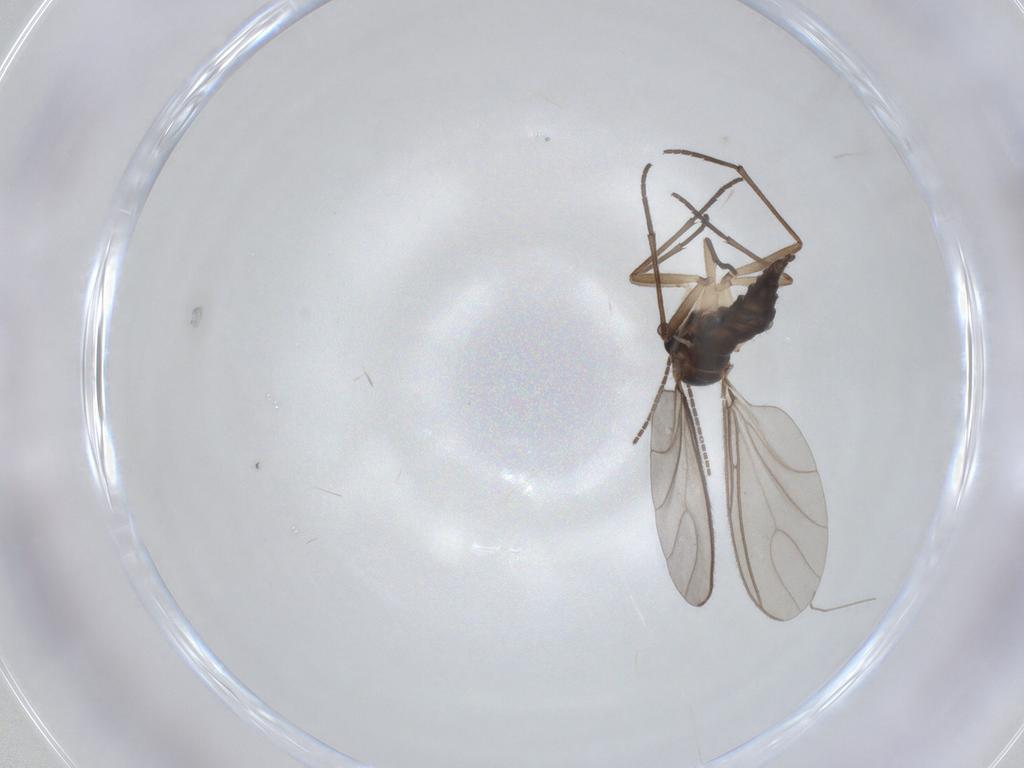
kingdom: Animalia
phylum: Arthropoda
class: Insecta
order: Diptera
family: Sciaridae
